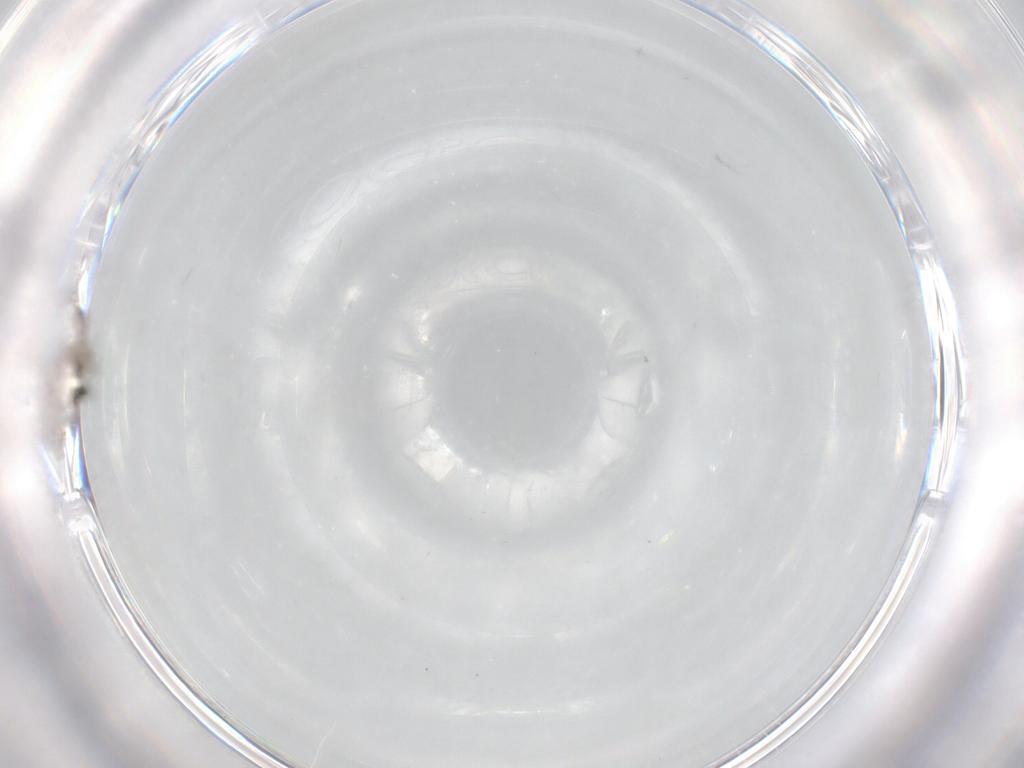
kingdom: Animalia
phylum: Arthropoda
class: Insecta
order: Diptera
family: Cecidomyiidae
